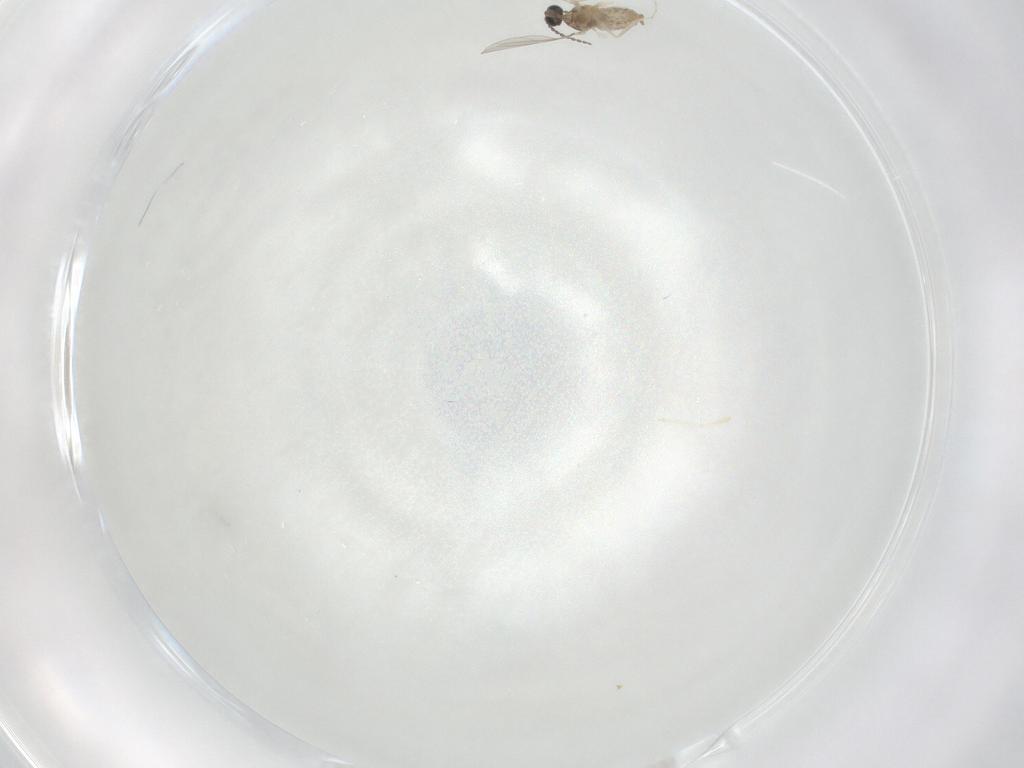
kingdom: Animalia
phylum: Arthropoda
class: Insecta
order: Diptera
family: Cecidomyiidae
